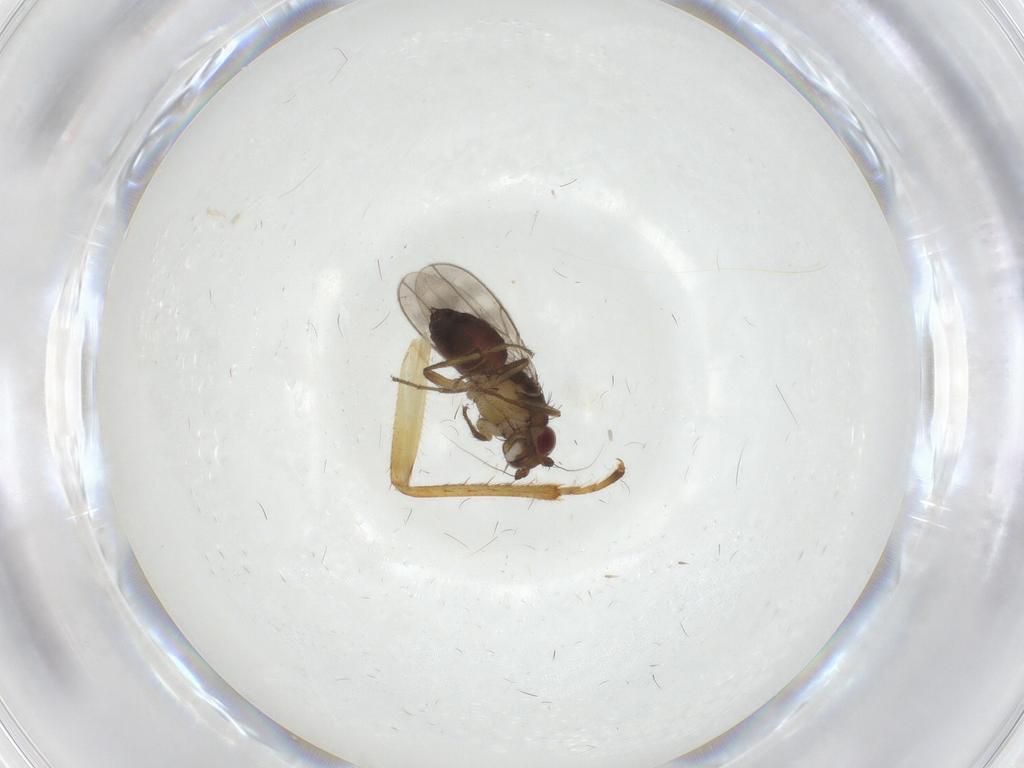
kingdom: Animalia
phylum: Arthropoda
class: Insecta
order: Diptera
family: Sphaeroceridae
